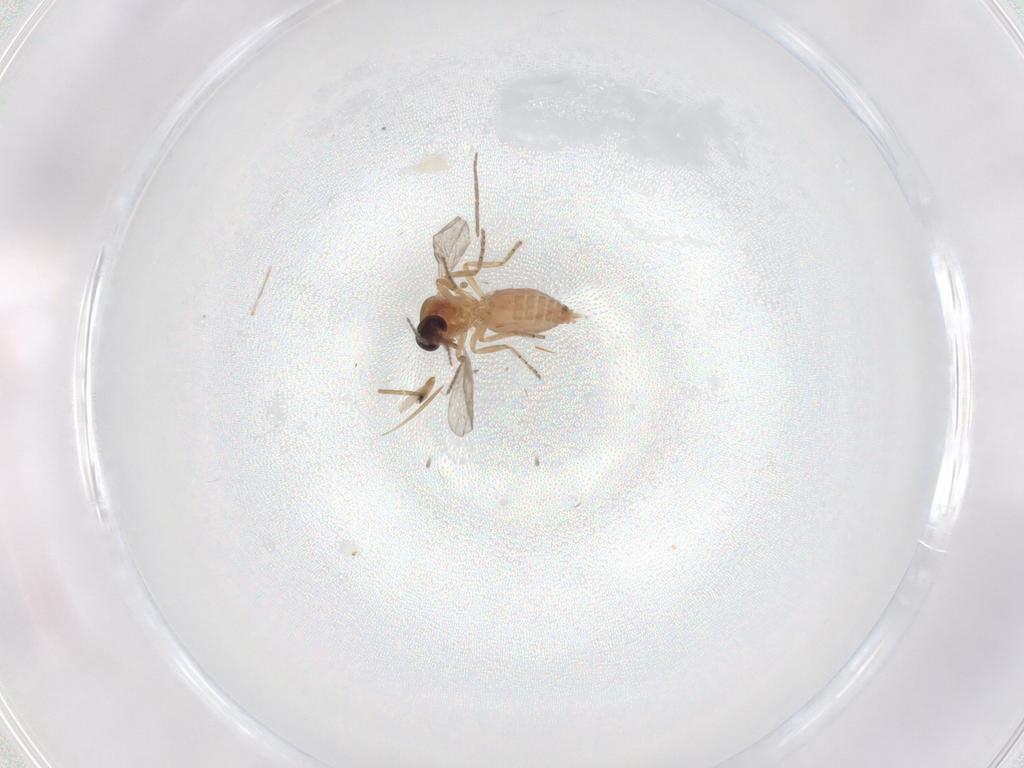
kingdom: Animalia
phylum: Arthropoda
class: Insecta
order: Diptera
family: Ceratopogonidae
